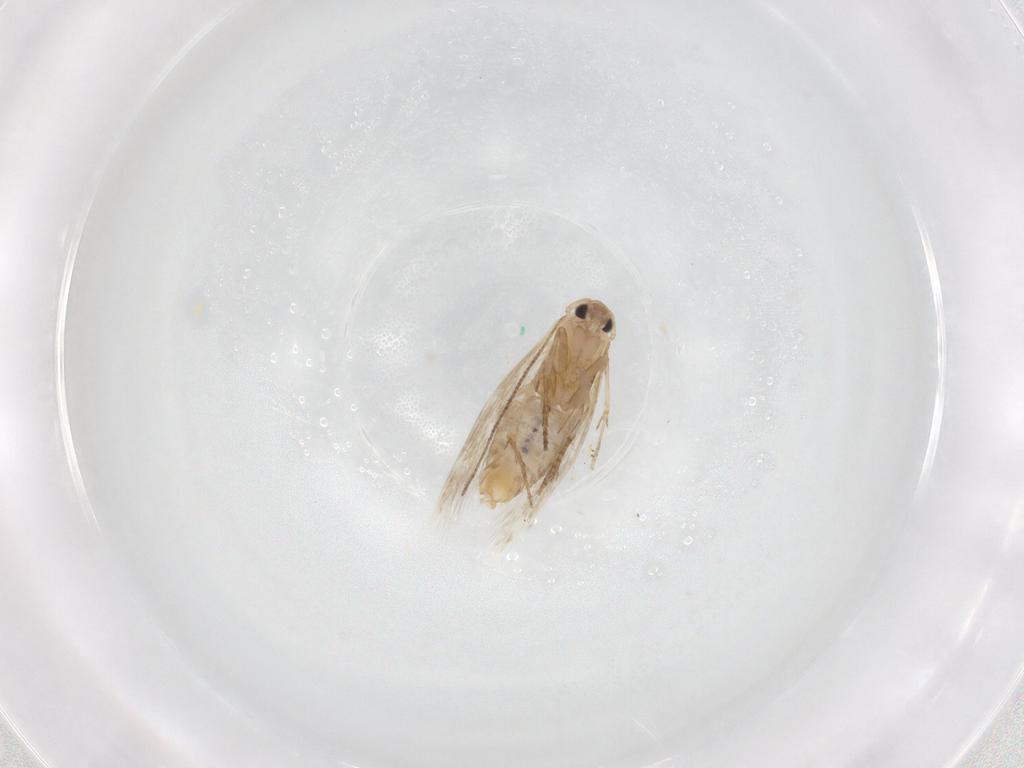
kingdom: Animalia
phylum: Arthropoda
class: Insecta
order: Lepidoptera
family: Bucculatricidae
